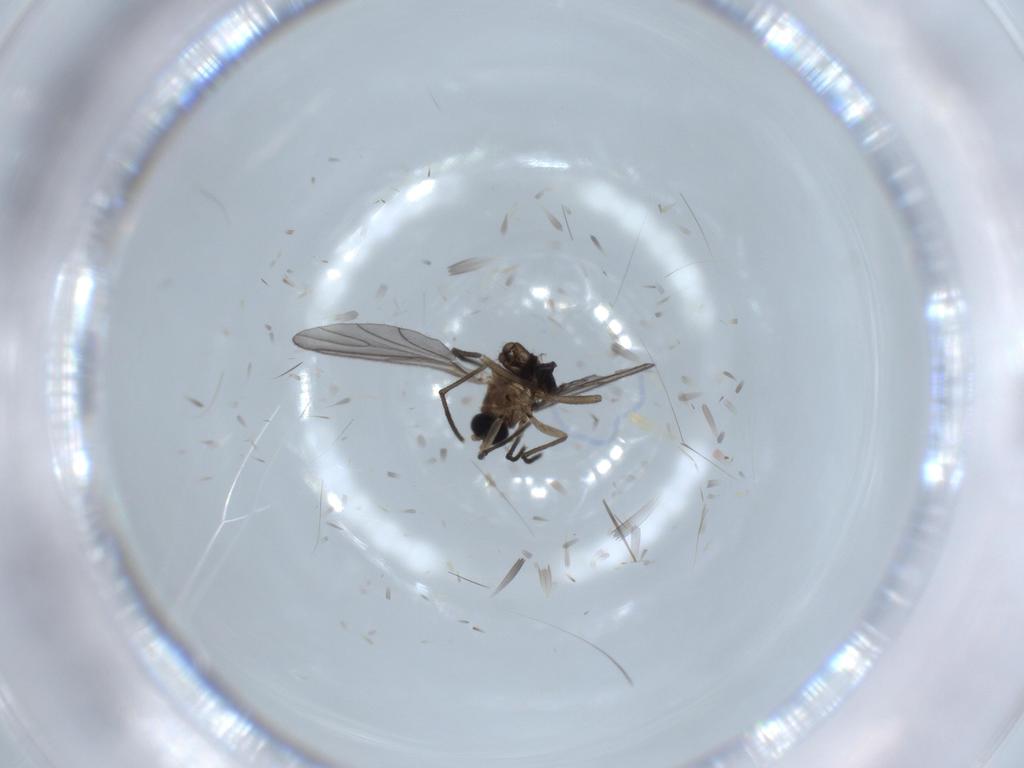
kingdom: Animalia
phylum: Arthropoda
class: Insecta
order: Diptera
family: Sciaridae
